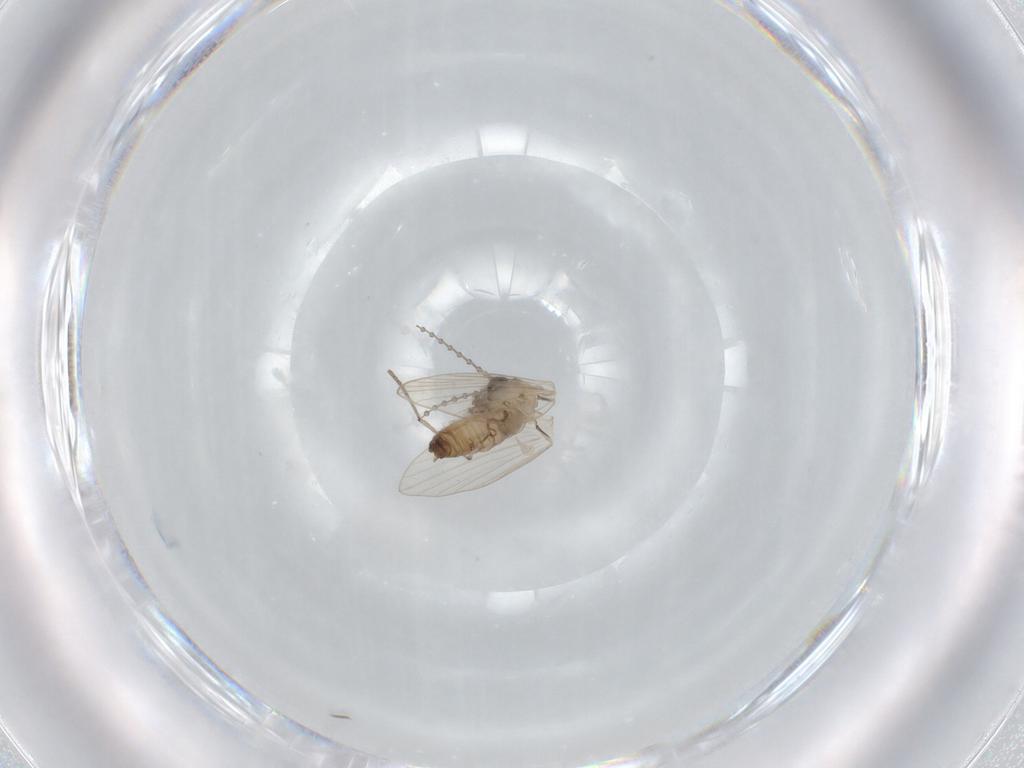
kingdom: Animalia
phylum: Arthropoda
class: Insecta
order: Diptera
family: Psychodidae
